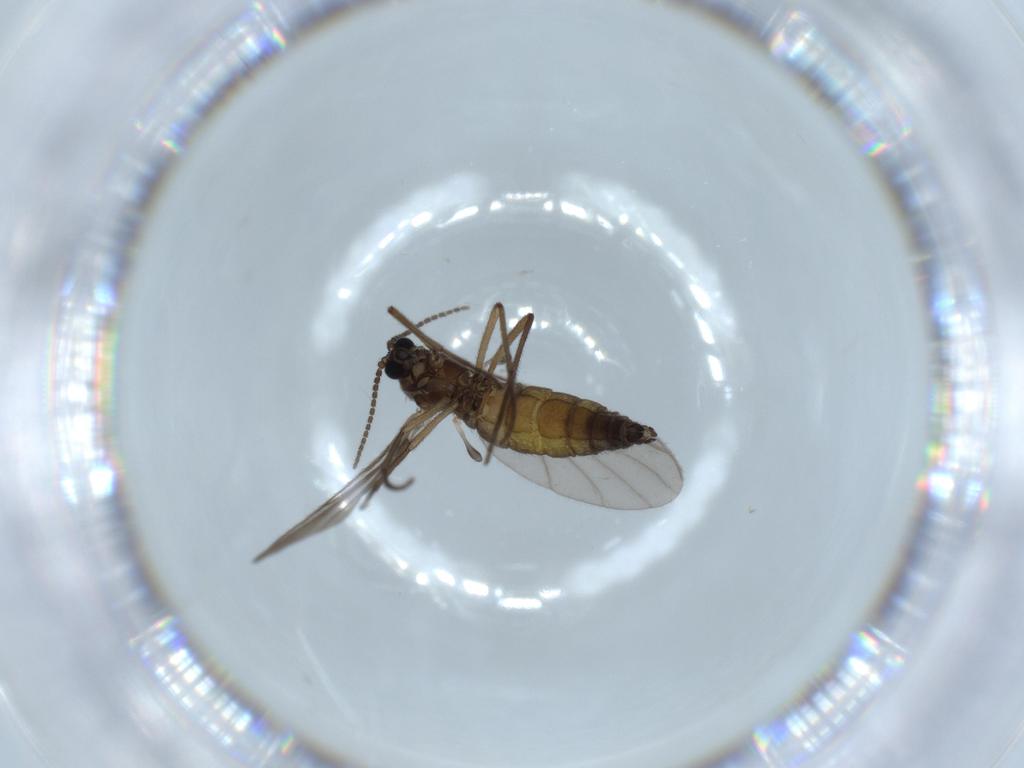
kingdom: Animalia
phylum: Arthropoda
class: Insecta
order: Diptera
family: Sciaridae
